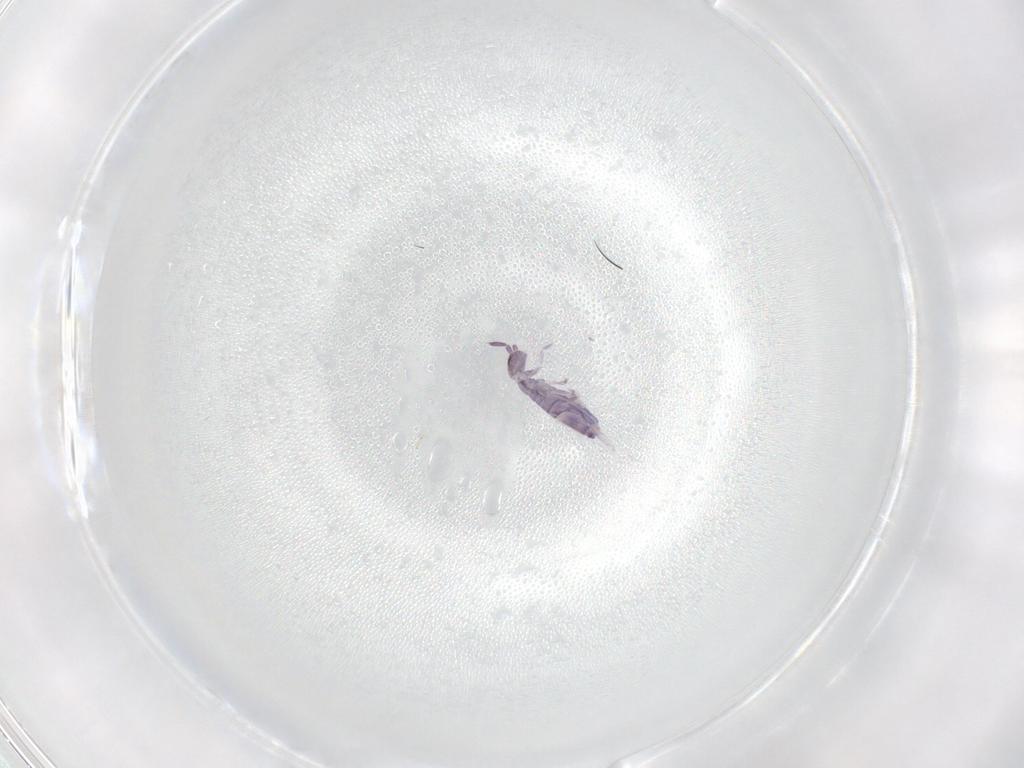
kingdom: Animalia
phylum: Arthropoda
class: Collembola
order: Entomobryomorpha
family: Entomobryidae
